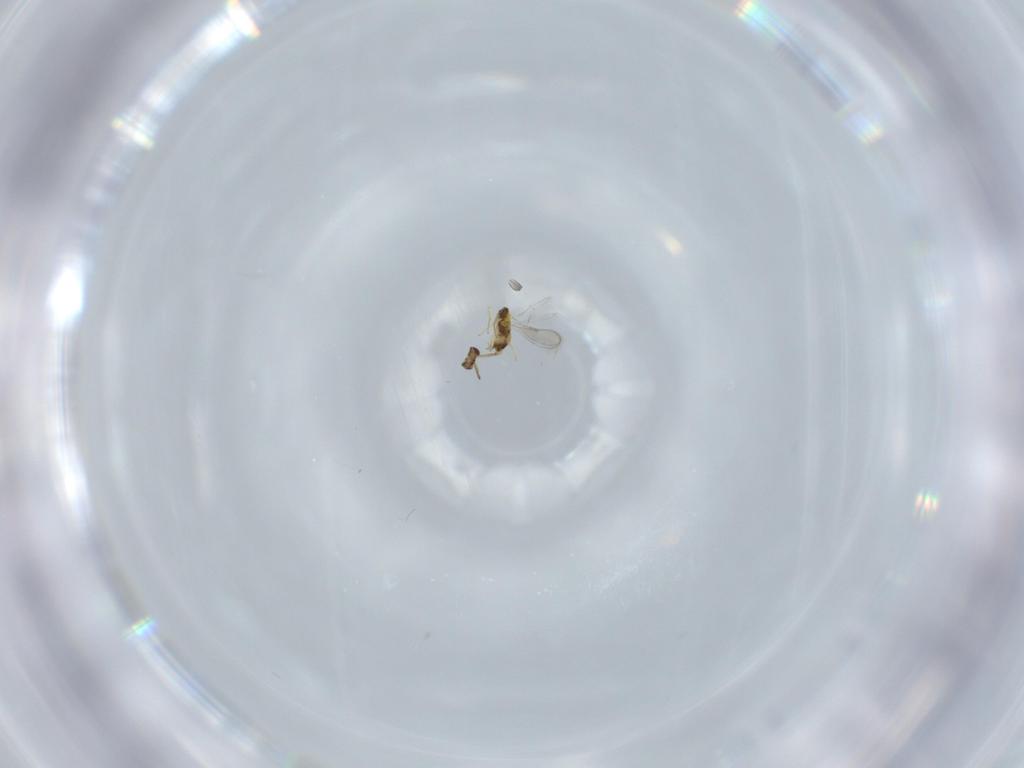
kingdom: Animalia
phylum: Arthropoda
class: Insecta
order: Hymenoptera
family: Aphelinidae
